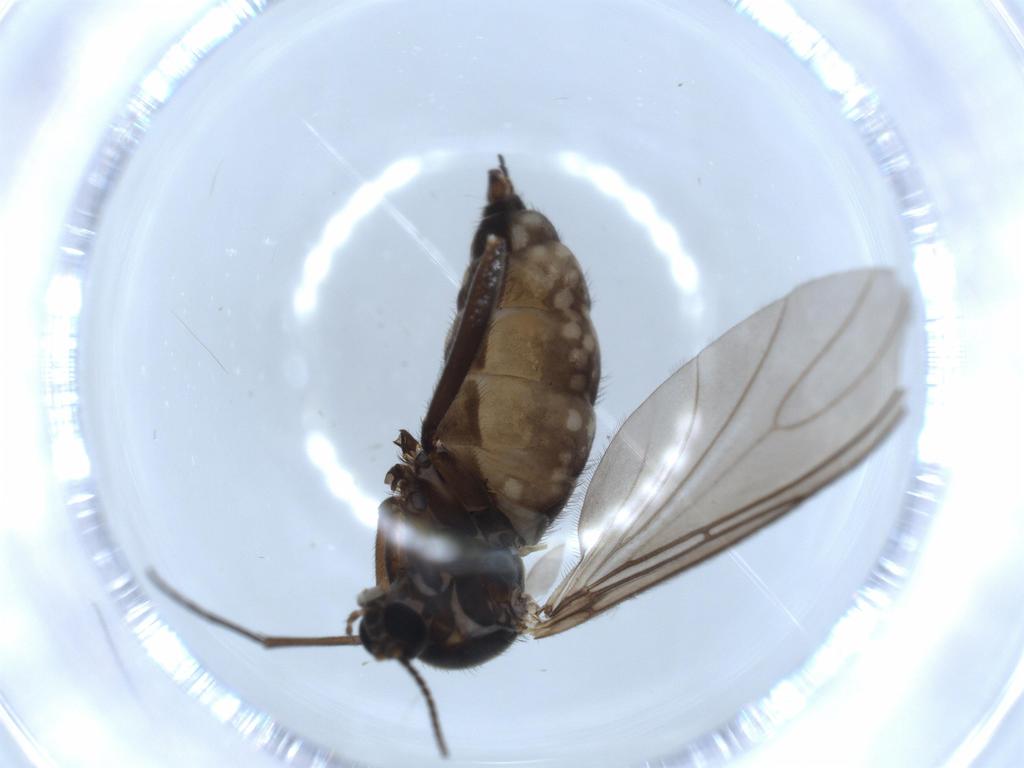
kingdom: Animalia
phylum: Arthropoda
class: Insecta
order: Diptera
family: Sciaridae
